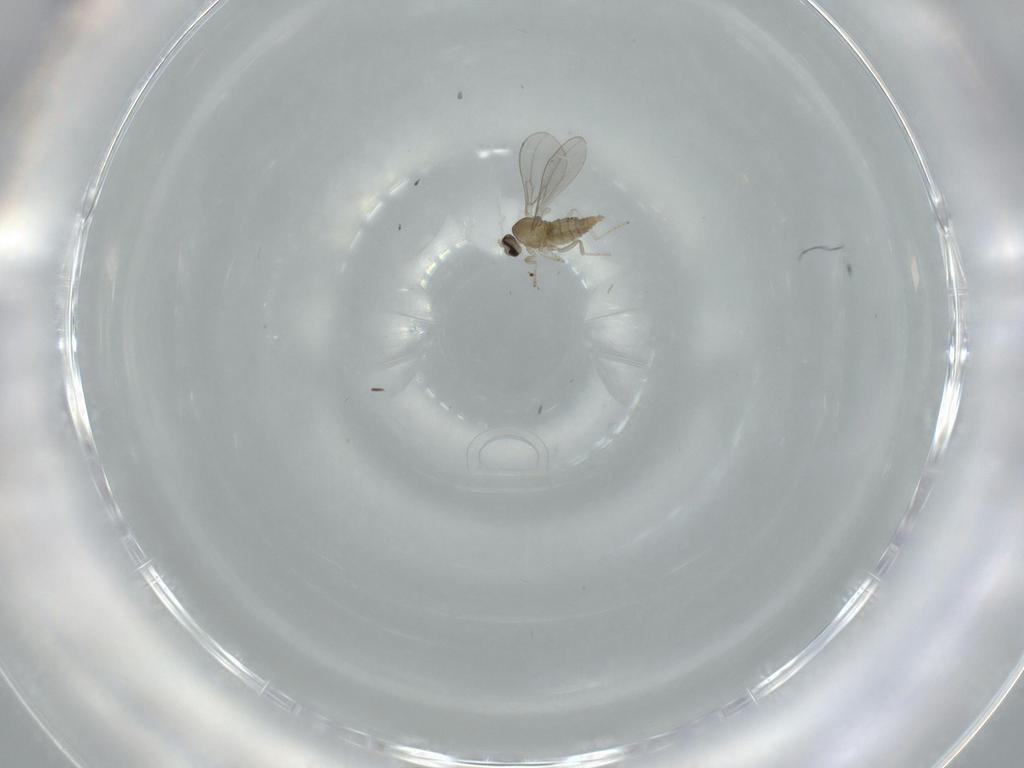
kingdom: Animalia
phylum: Arthropoda
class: Insecta
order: Diptera
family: Cecidomyiidae
